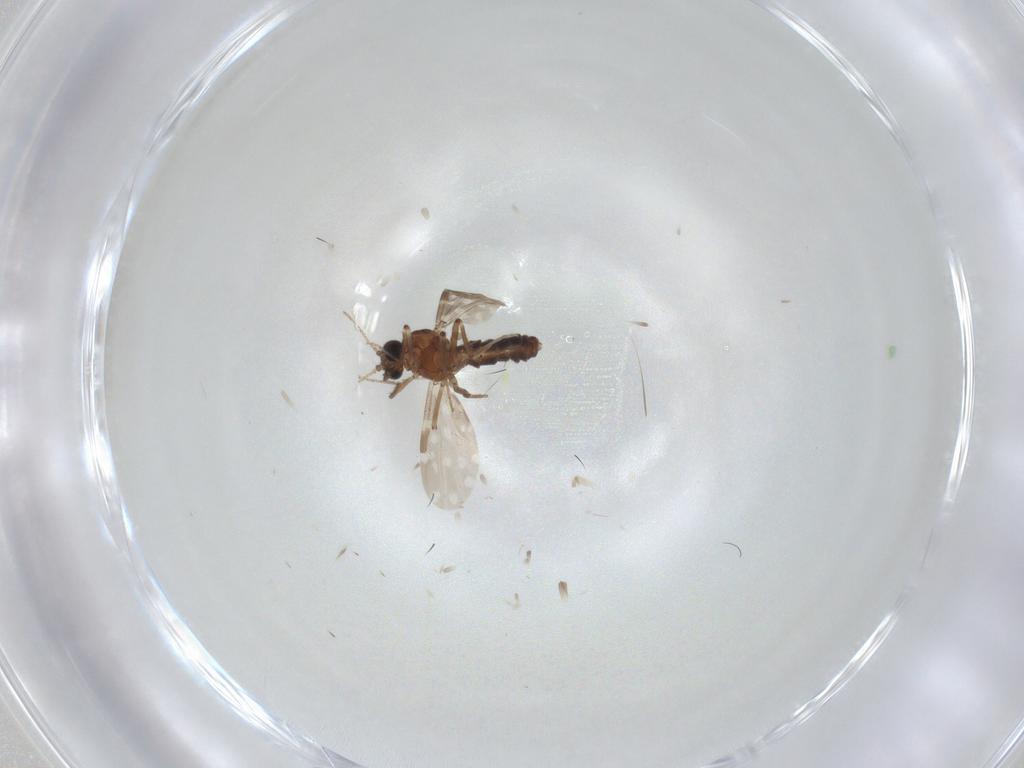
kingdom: Animalia
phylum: Arthropoda
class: Insecta
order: Diptera
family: Cecidomyiidae
